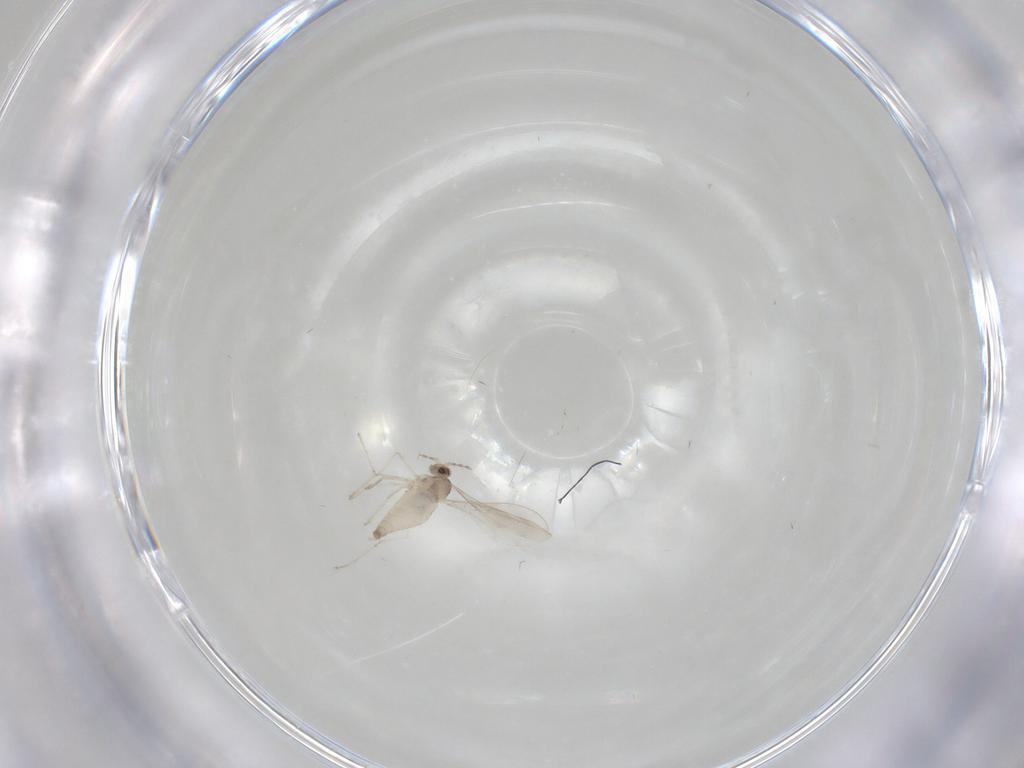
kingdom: Animalia
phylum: Arthropoda
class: Insecta
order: Diptera
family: Cecidomyiidae
